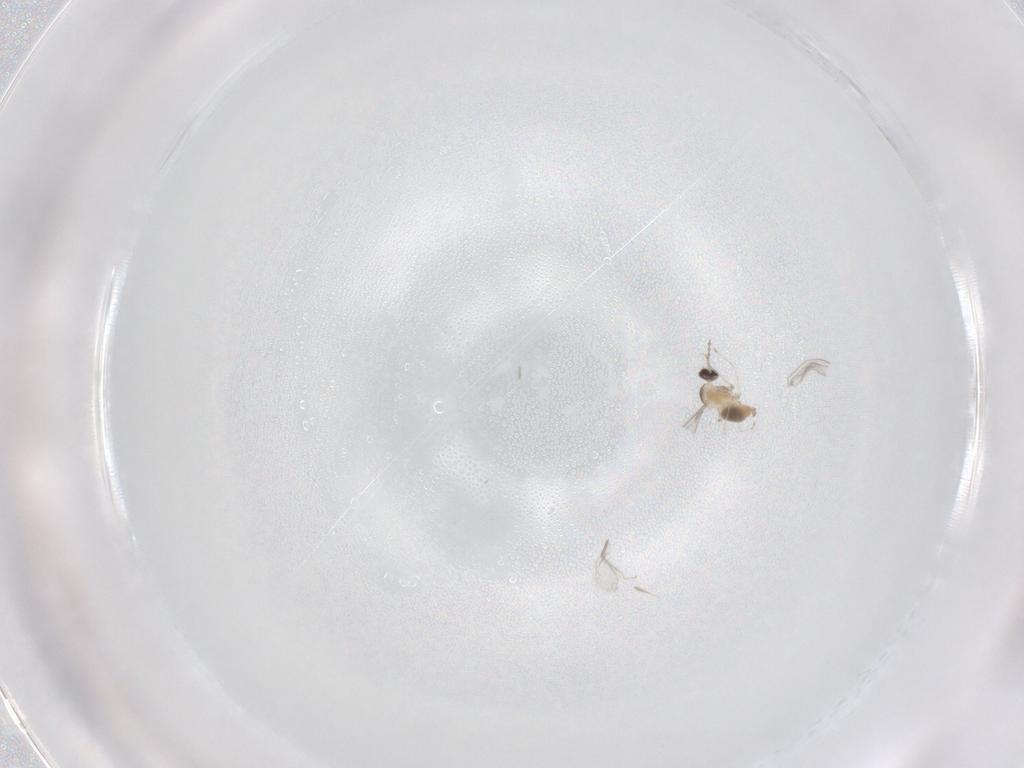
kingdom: Animalia
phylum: Arthropoda
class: Insecta
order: Diptera
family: Cecidomyiidae
